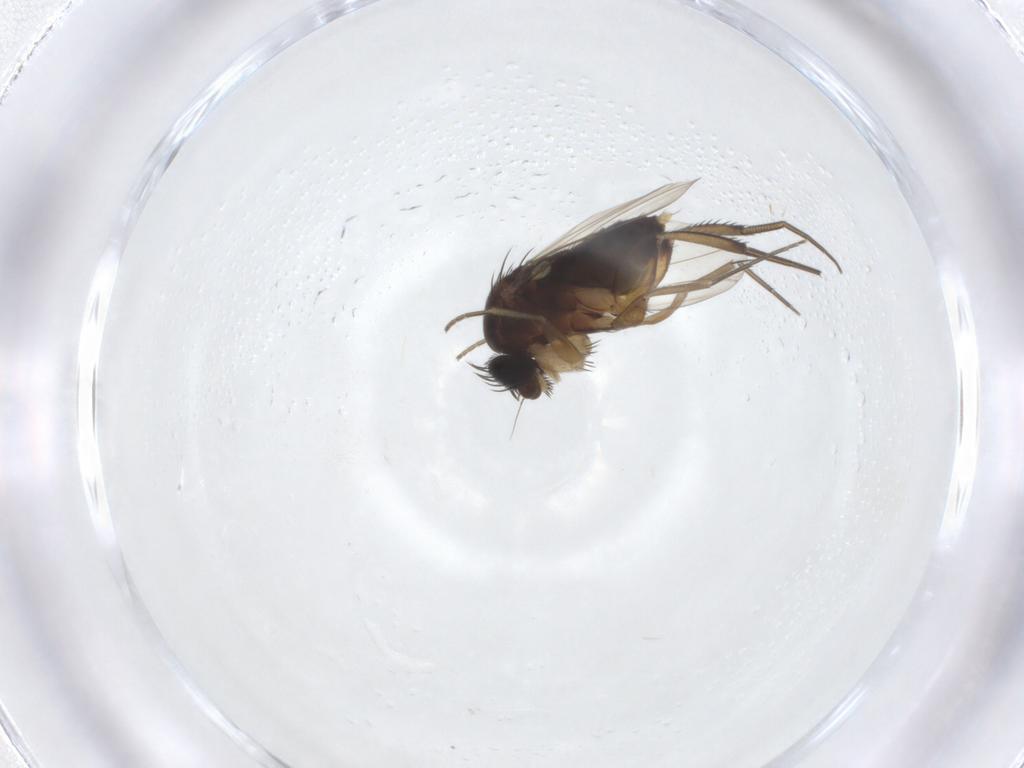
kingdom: Animalia
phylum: Arthropoda
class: Insecta
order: Diptera
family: Phoridae
